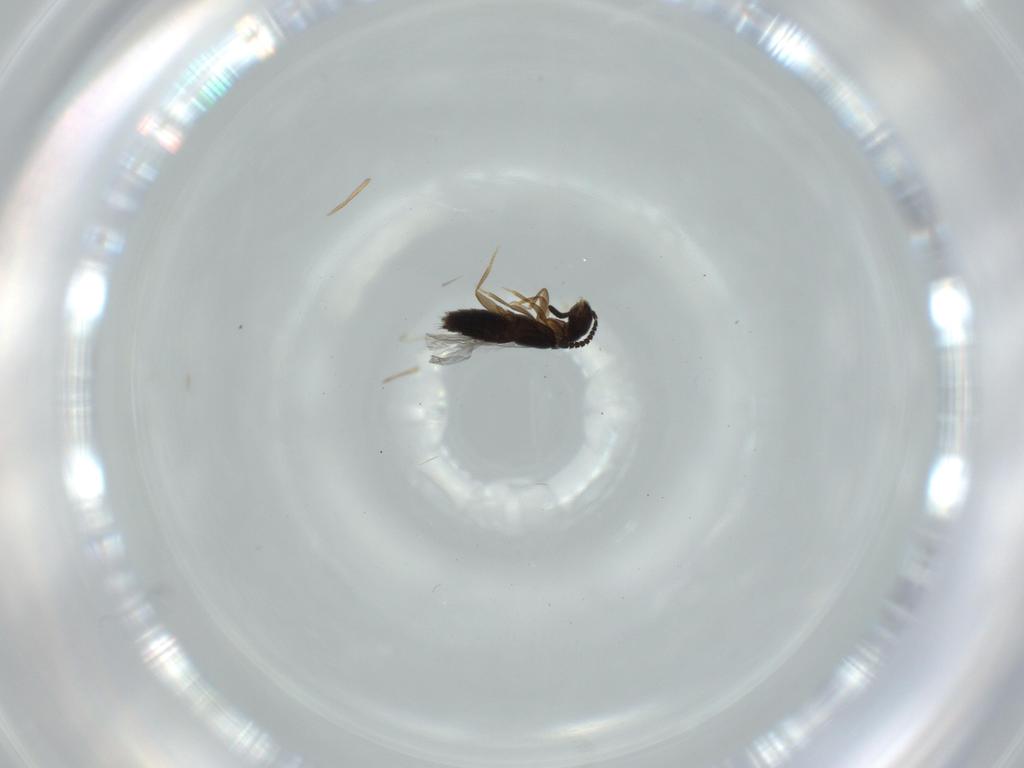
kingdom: Animalia
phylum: Arthropoda
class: Insecta
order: Coleoptera
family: Staphylinidae
